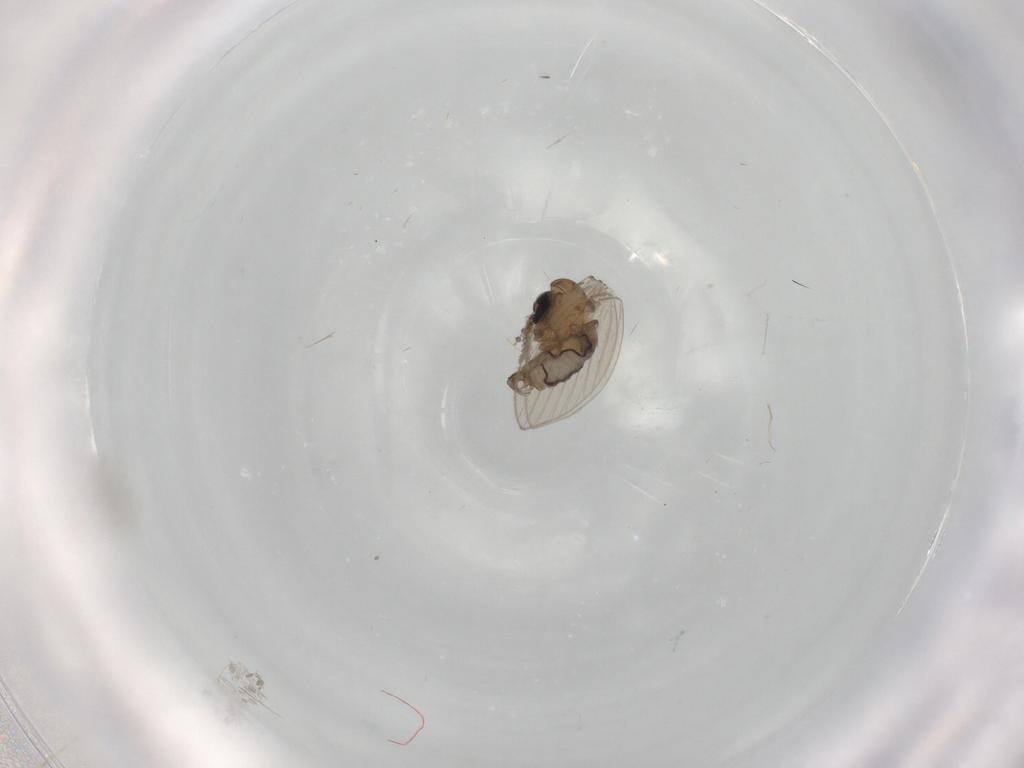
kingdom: Animalia
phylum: Arthropoda
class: Insecta
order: Diptera
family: Psychodidae
